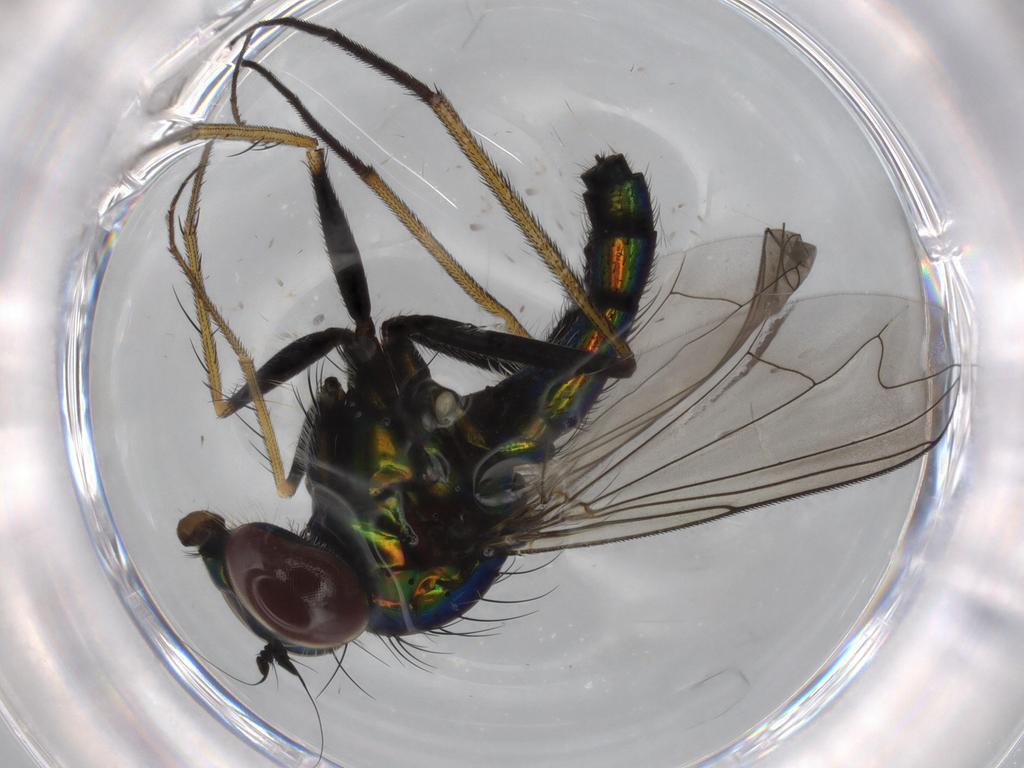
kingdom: Animalia
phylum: Arthropoda
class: Insecta
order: Diptera
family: Dolichopodidae
